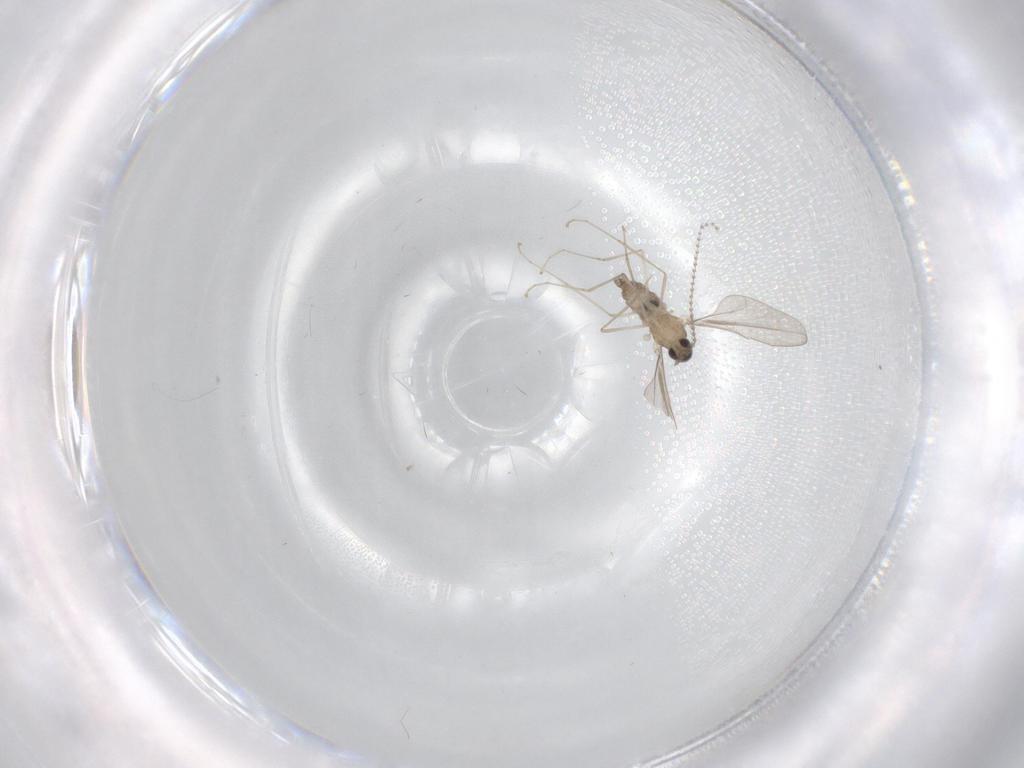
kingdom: Animalia
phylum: Arthropoda
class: Insecta
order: Diptera
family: Cecidomyiidae
